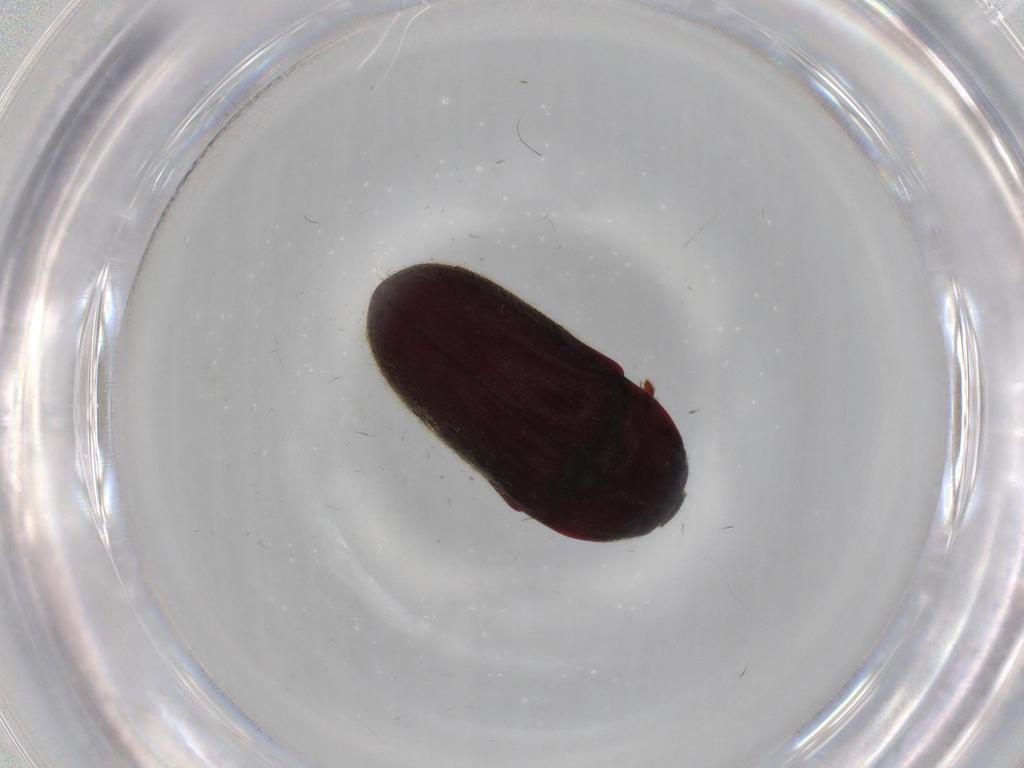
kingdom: Animalia
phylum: Arthropoda
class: Insecta
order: Coleoptera
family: Throscidae
